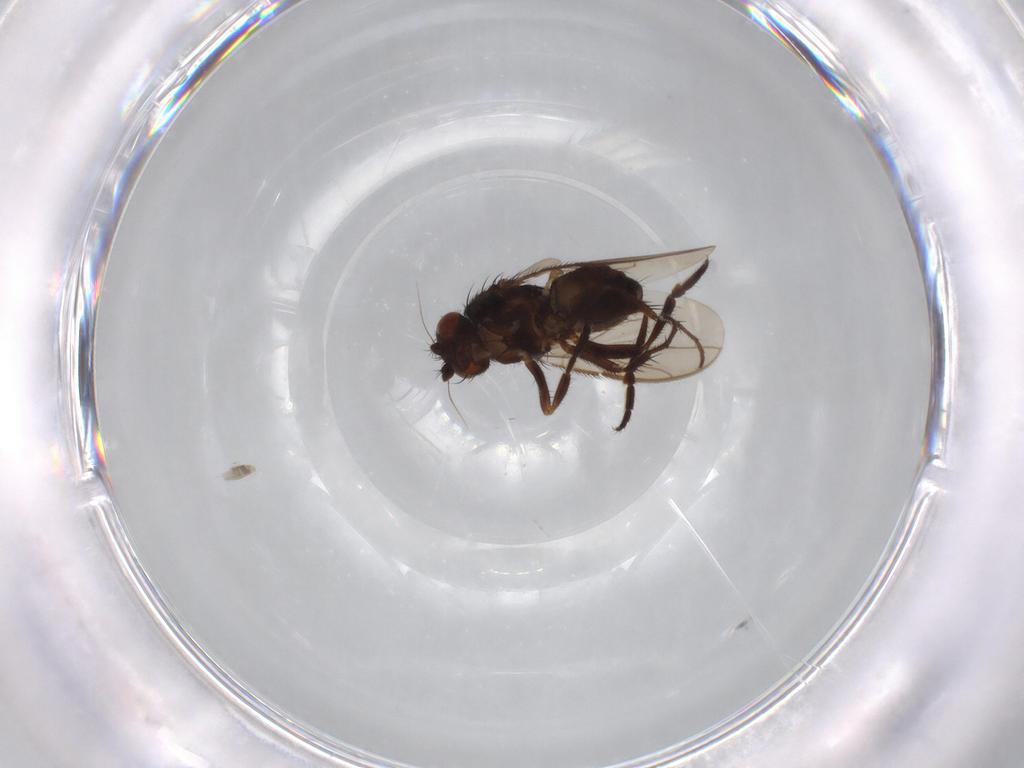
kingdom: Animalia
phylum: Arthropoda
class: Insecta
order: Diptera
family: Sphaeroceridae
